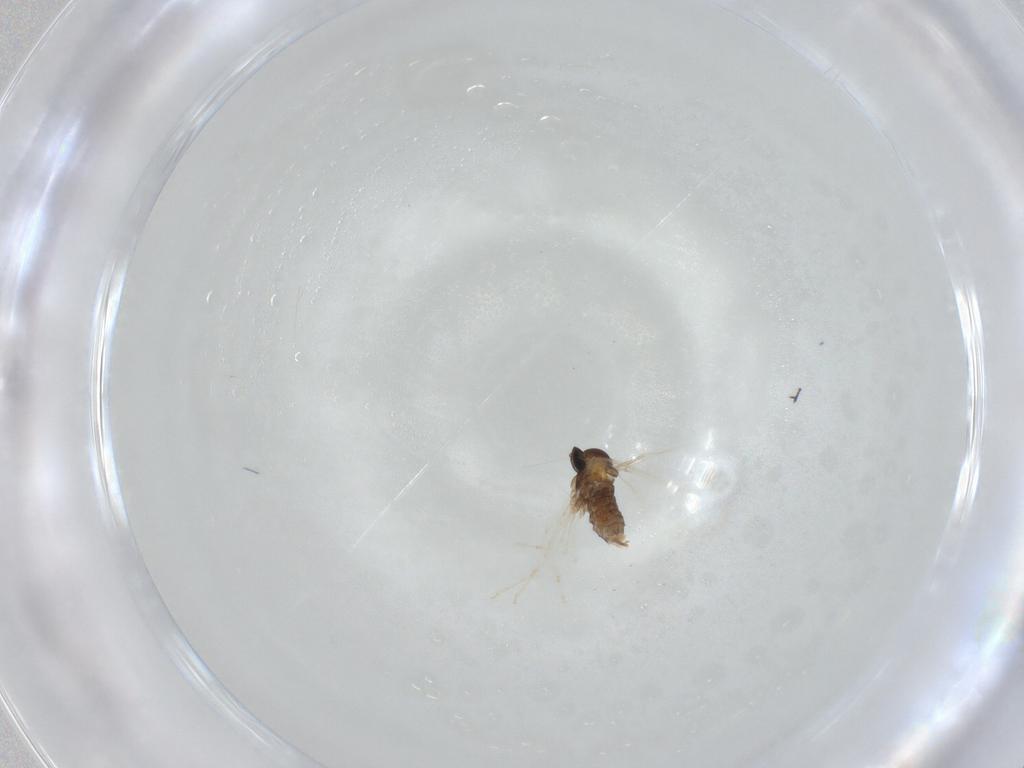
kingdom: Animalia
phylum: Arthropoda
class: Insecta
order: Diptera
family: Cecidomyiidae
